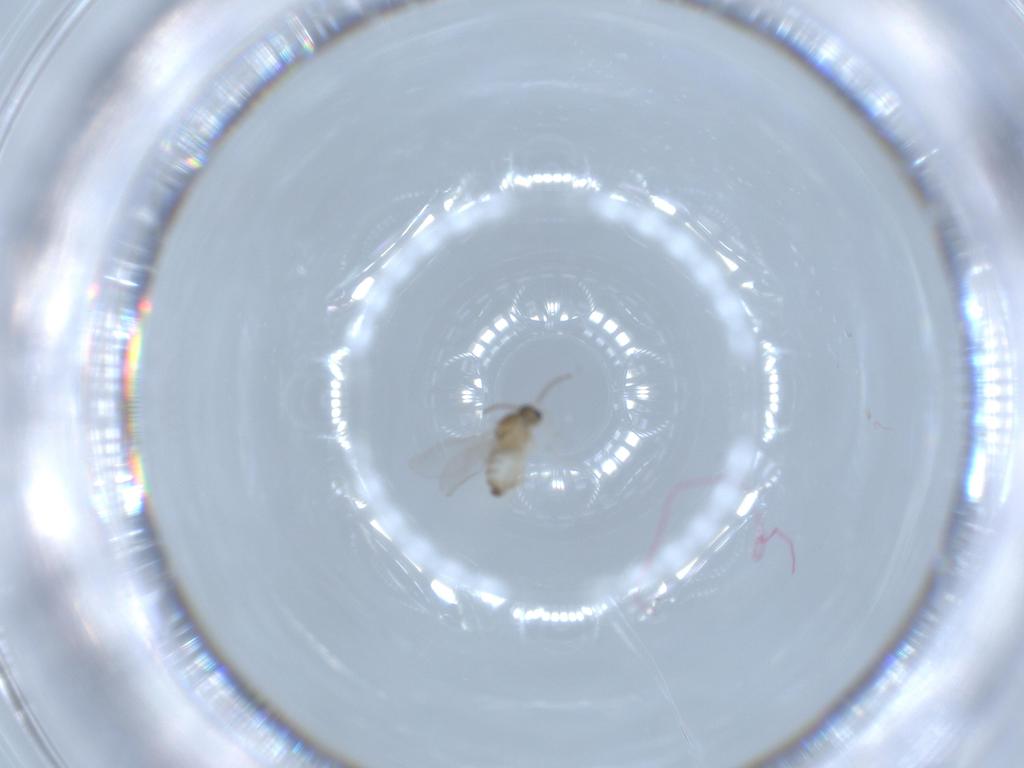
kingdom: Animalia
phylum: Arthropoda
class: Insecta
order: Diptera
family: Cecidomyiidae
